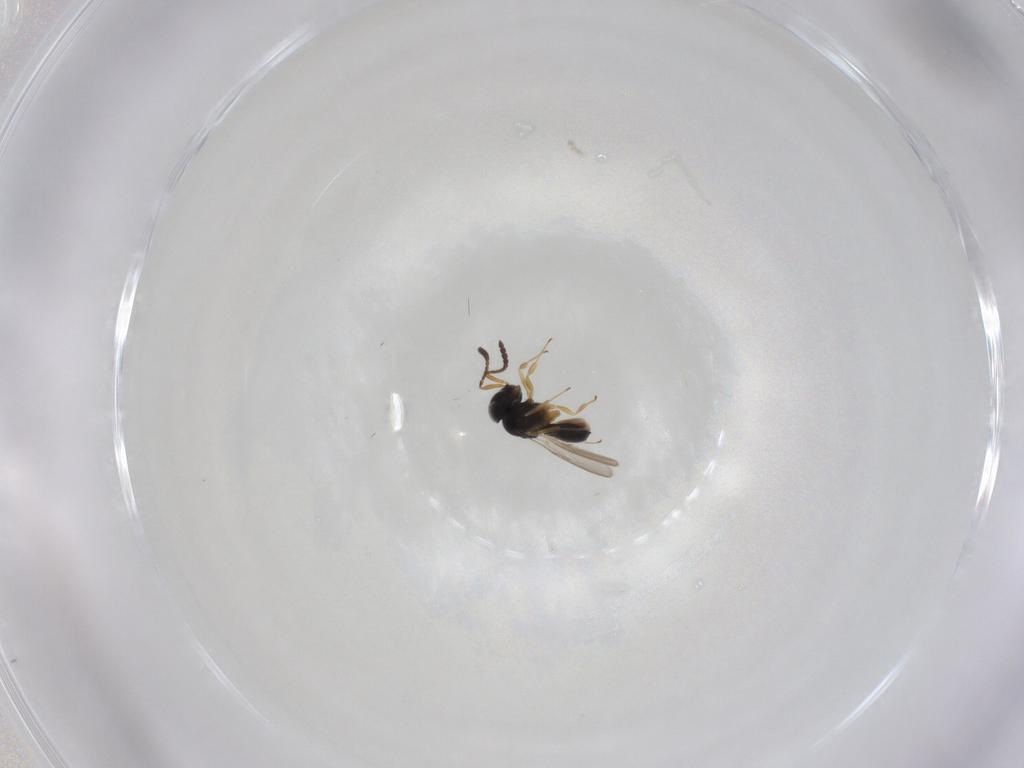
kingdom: Animalia
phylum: Arthropoda
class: Insecta
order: Hymenoptera
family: Scelionidae
